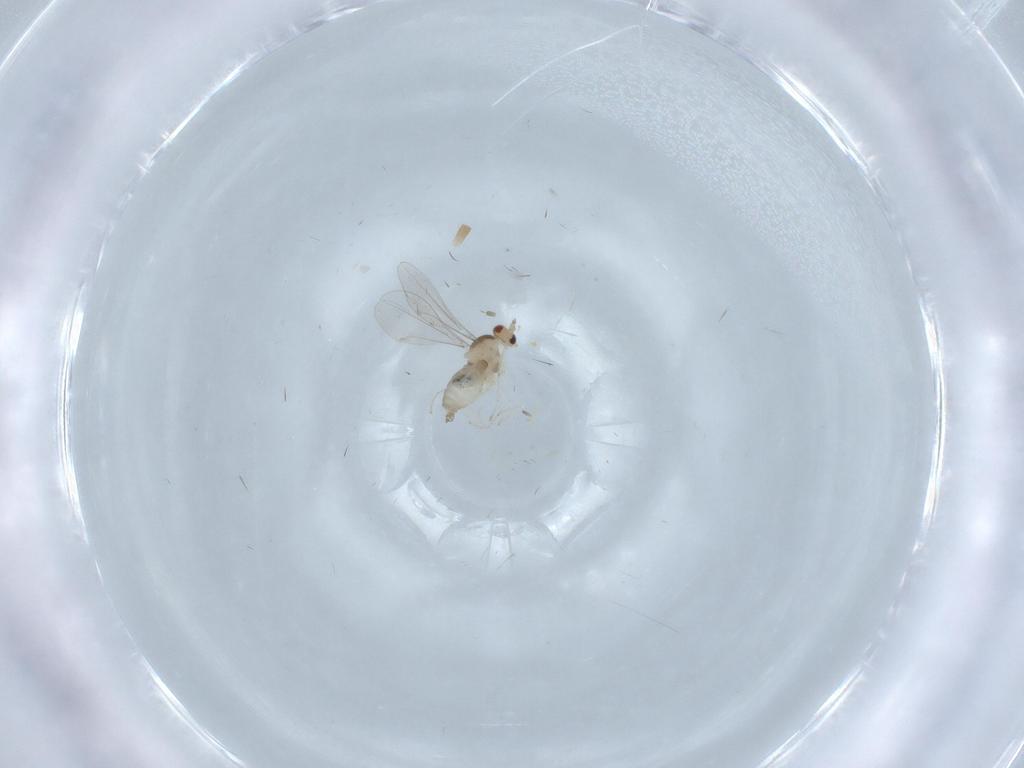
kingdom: Animalia
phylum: Arthropoda
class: Insecta
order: Diptera
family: Cecidomyiidae
